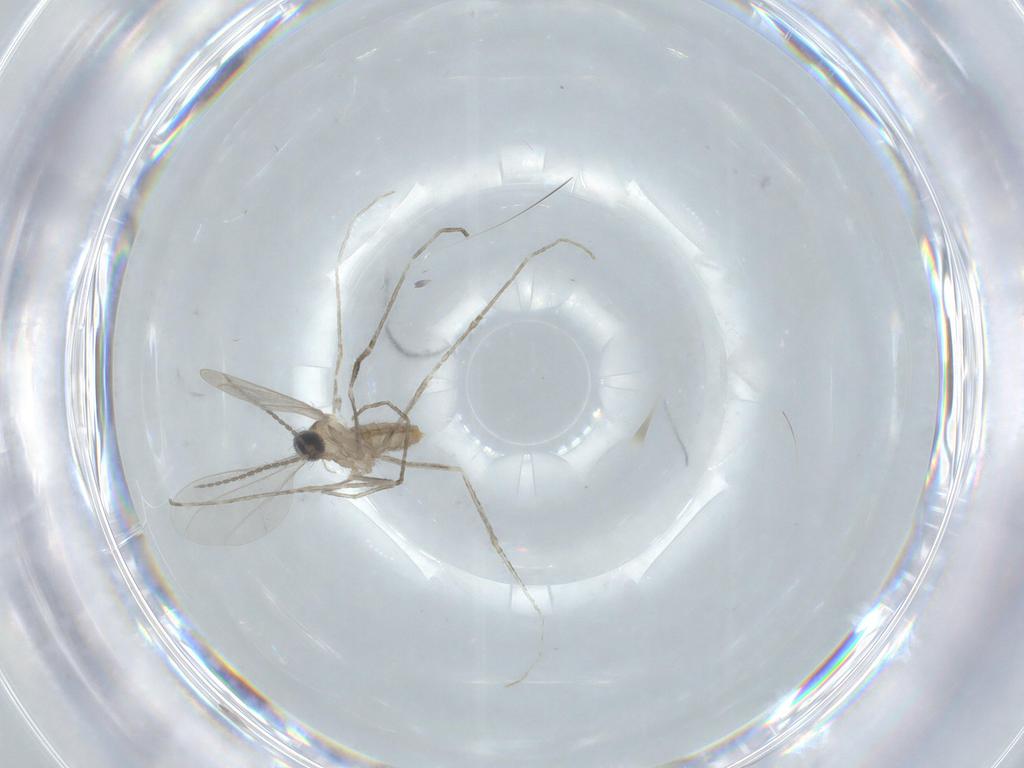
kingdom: Animalia
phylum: Arthropoda
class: Insecta
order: Diptera
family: Cecidomyiidae
